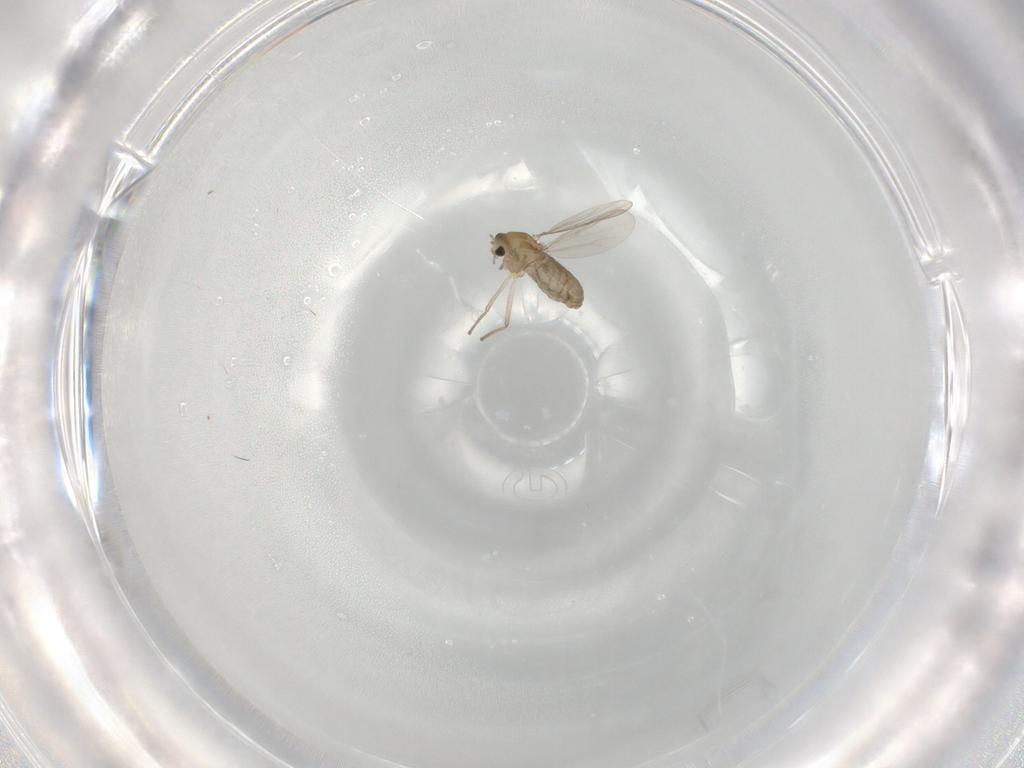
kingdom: Animalia
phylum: Arthropoda
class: Insecta
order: Diptera
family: Chironomidae
